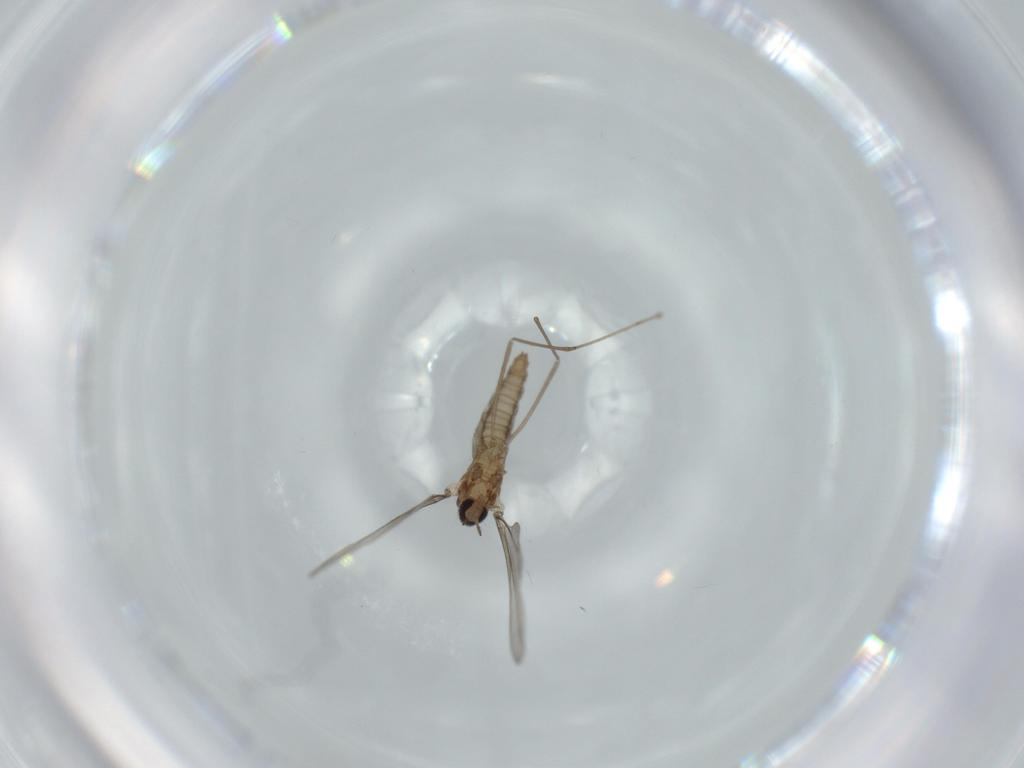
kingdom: Animalia
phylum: Arthropoda
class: Insecta
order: Diptera
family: Cecidomyiidae
